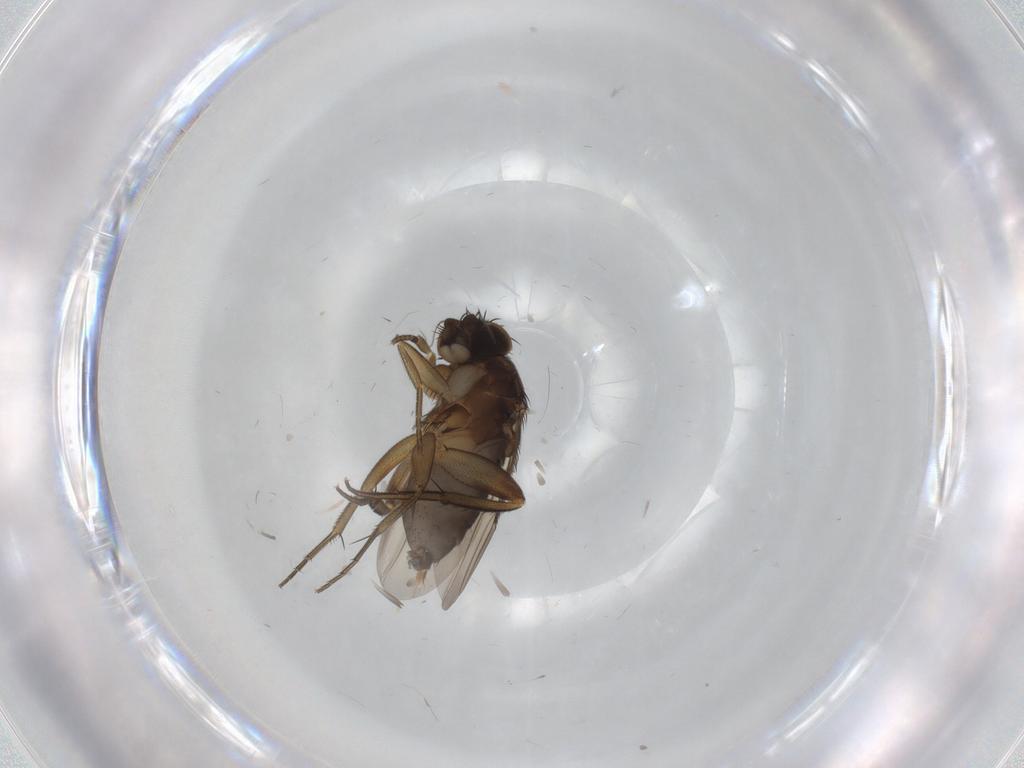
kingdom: Animalia
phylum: Arthropoda
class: Insecta
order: Diptera
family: Phoridae
